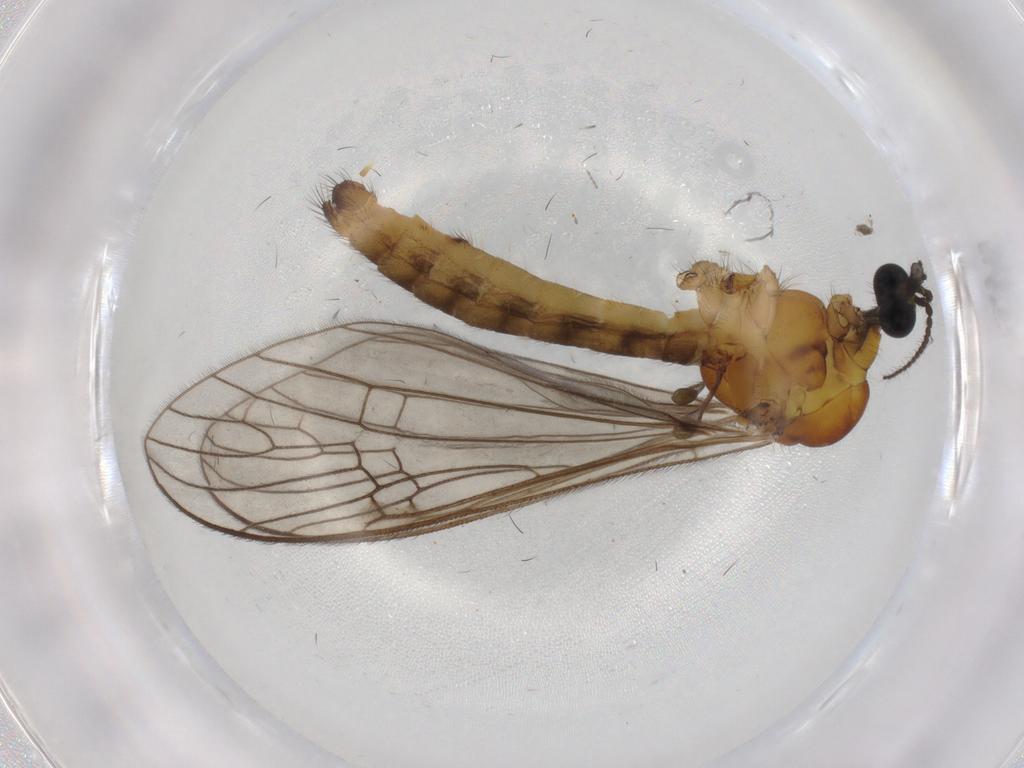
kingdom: Animalia
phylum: Arthropoda
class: Insecta
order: Diptera
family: Limoniidae
